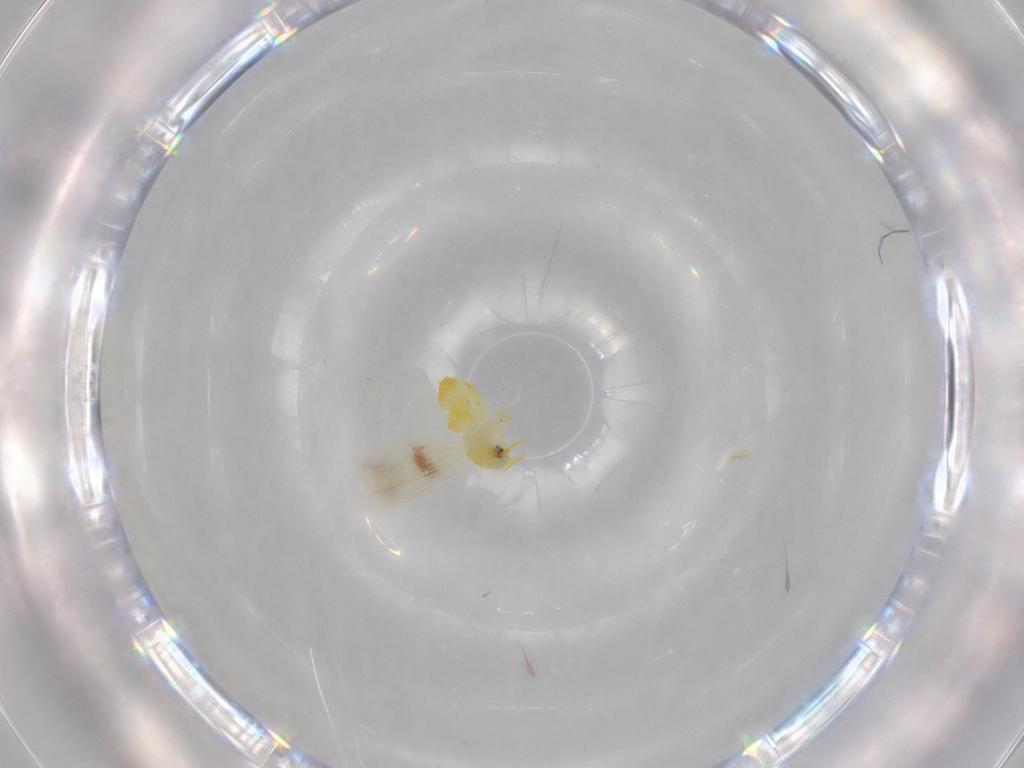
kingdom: Animalia
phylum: Arthropoda
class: Insecta
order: Hemiptera
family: Aleyrodidae
